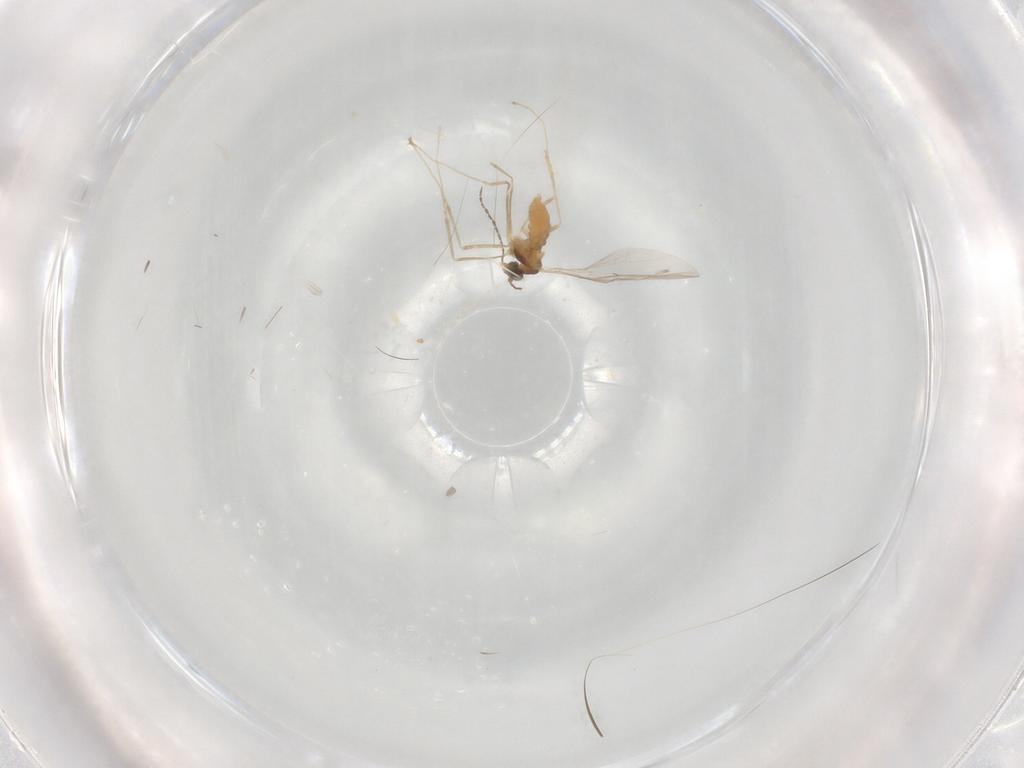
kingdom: Animalia
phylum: Arthropoda
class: Insecta
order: Diptera
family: Cecidomyiidae
